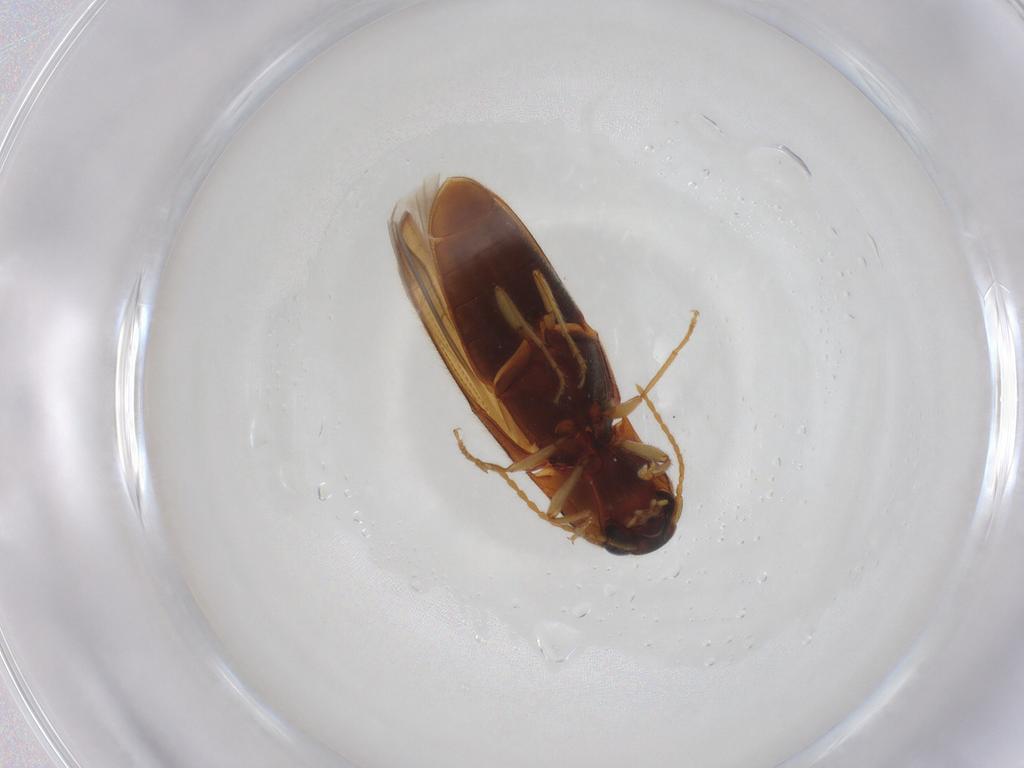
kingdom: Animalia
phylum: Arthropoda
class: Insecta
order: Coleoptera
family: Elateridae
